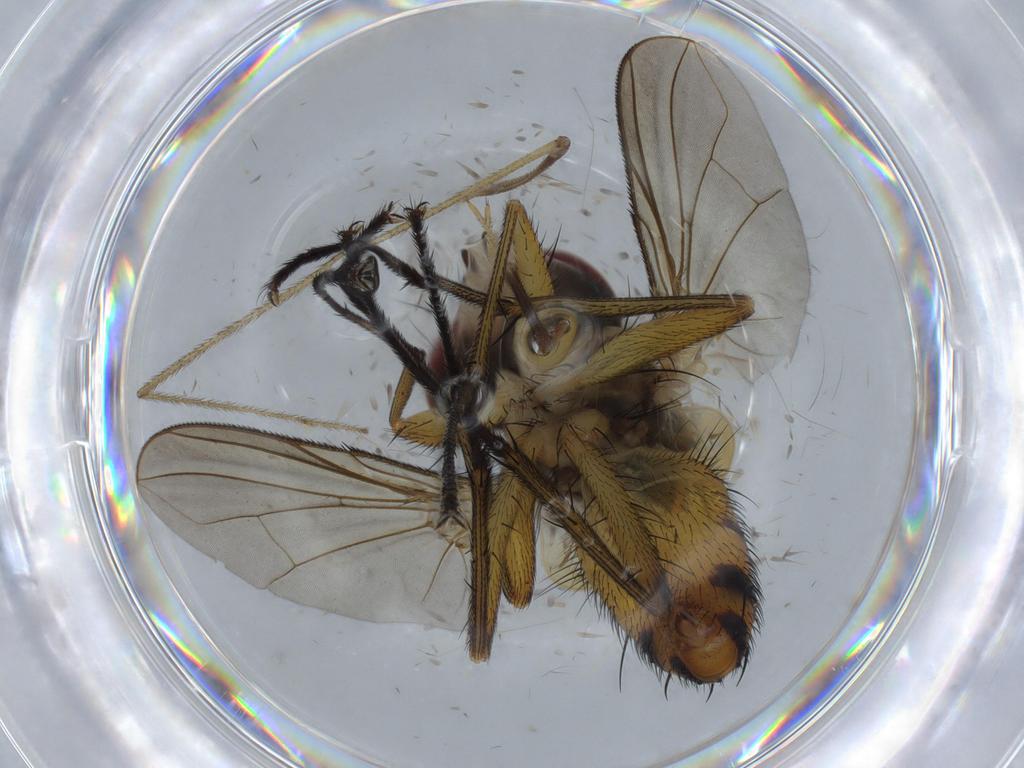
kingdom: Animalia
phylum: Arthropoda
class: Insecta
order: Diptera
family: Tachinidae
